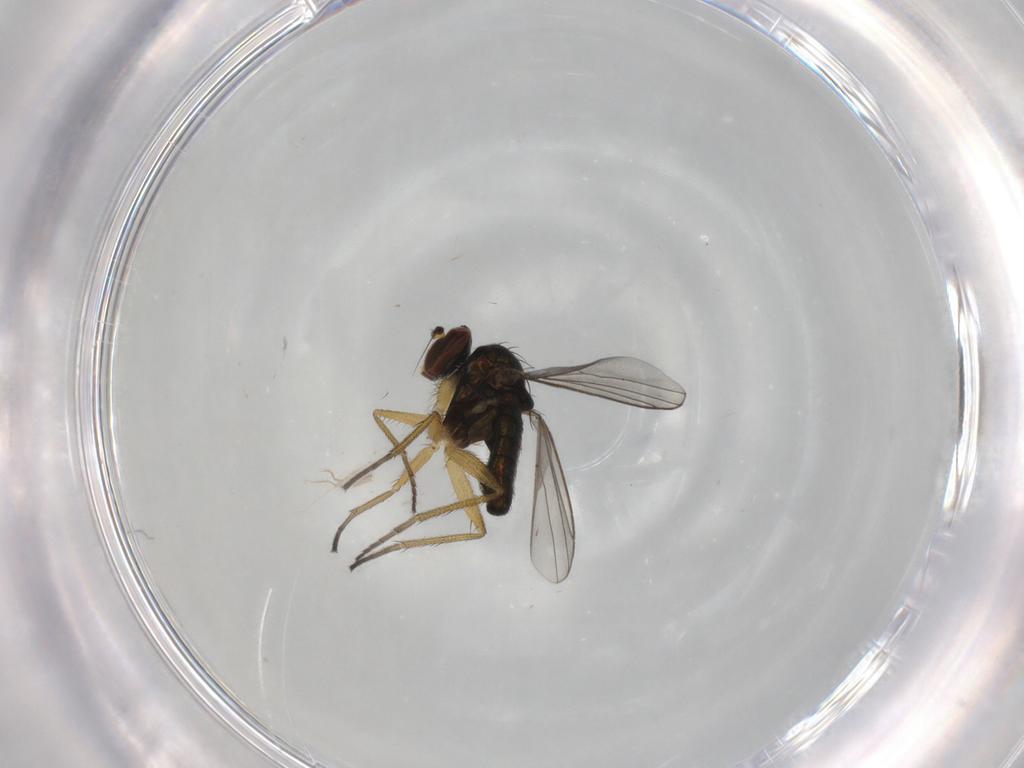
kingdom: Animalia
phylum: Arthropoda
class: Insecta
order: Diptera
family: Dolichopodidae
